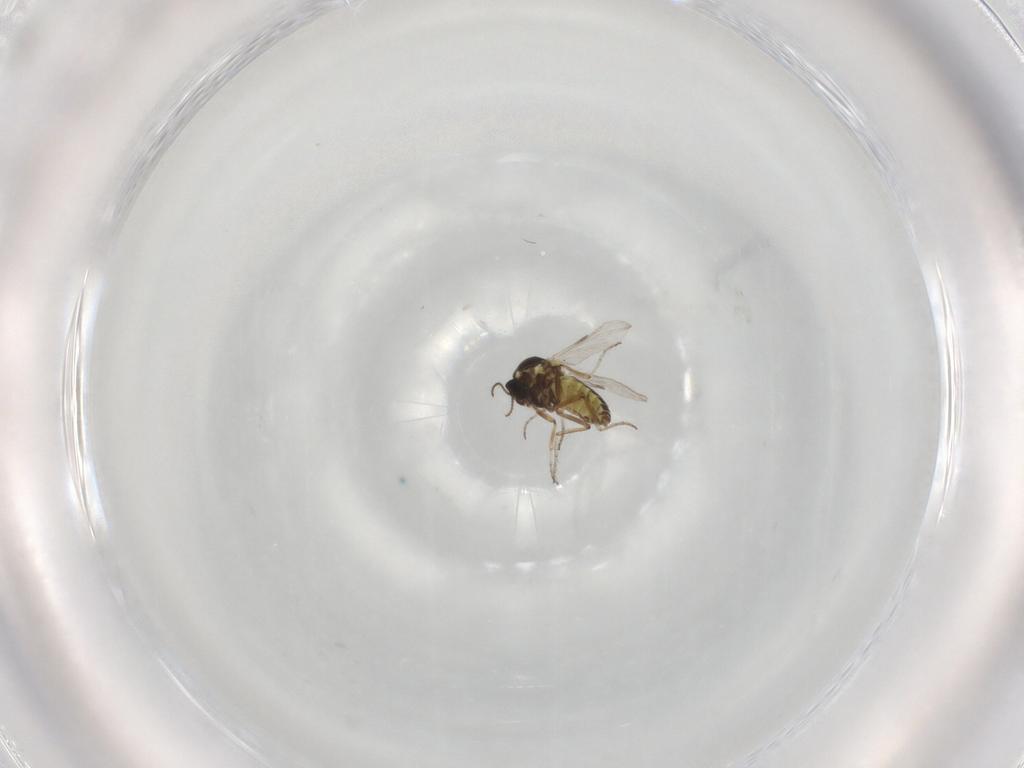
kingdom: Animalia
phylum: Arthropoda
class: Insecta
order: Diptera
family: Ceratopogonidae
